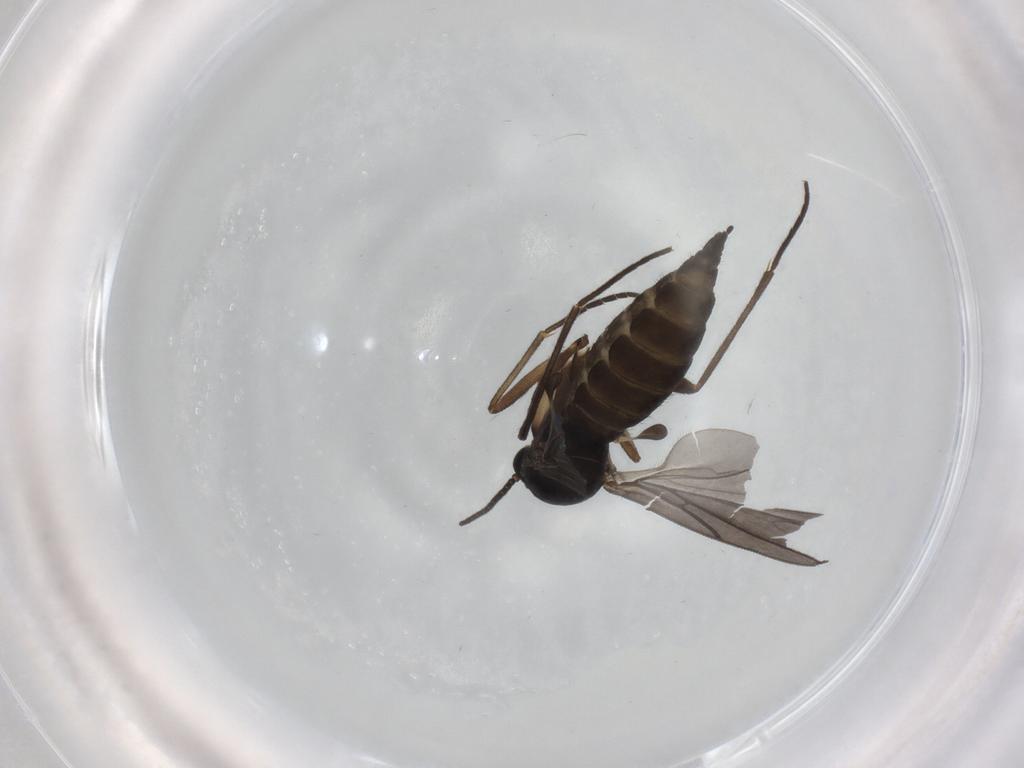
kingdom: Animalia
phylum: Arthropoda
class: Insecta
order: Diptera
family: Sciaridae
